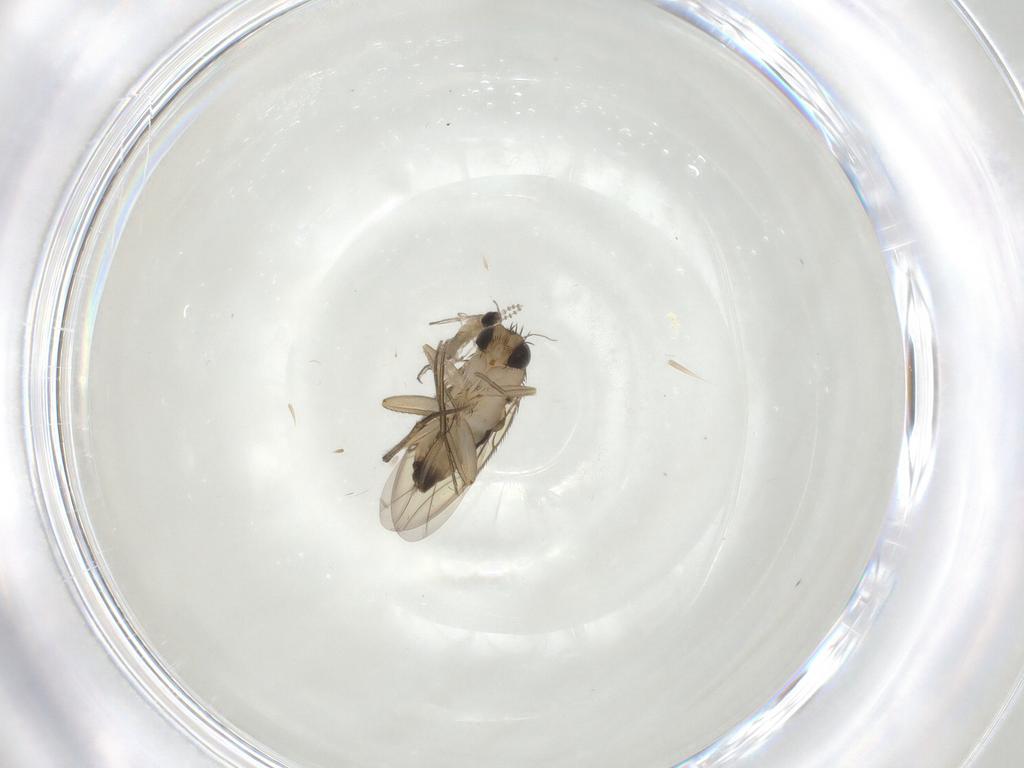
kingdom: Animalia
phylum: Arthropoda
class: Insecta
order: Diptera
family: Cecidomyiidae
